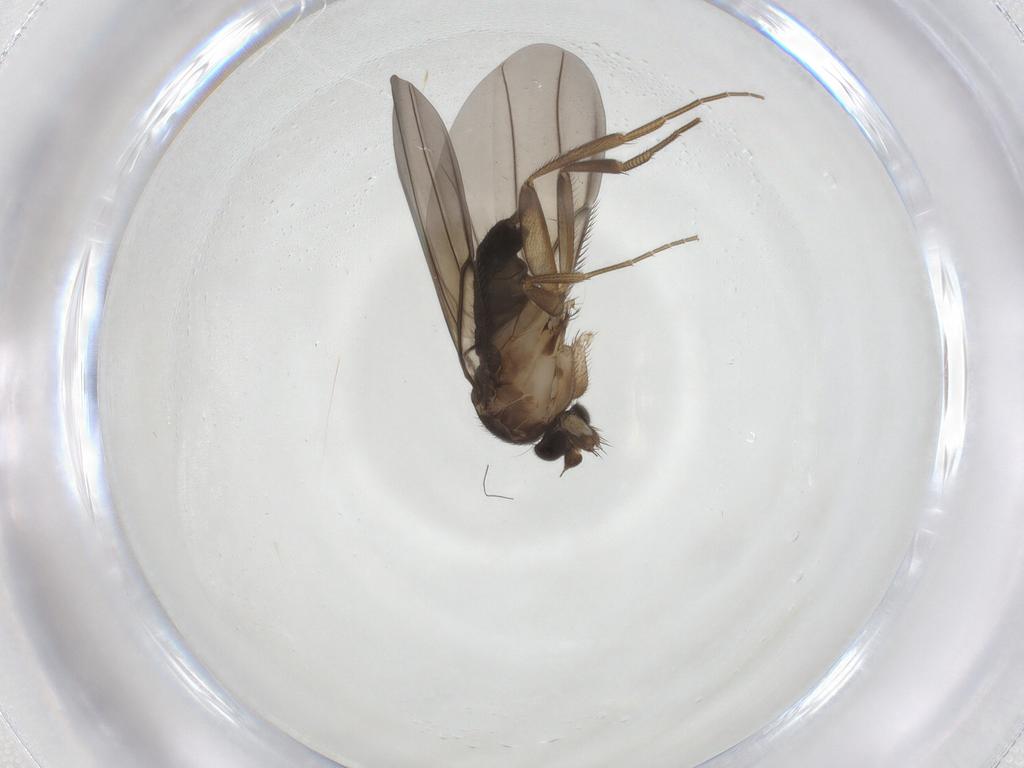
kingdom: Animalia
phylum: Arthropoda
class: Insecta
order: Diptera
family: Phoridae
